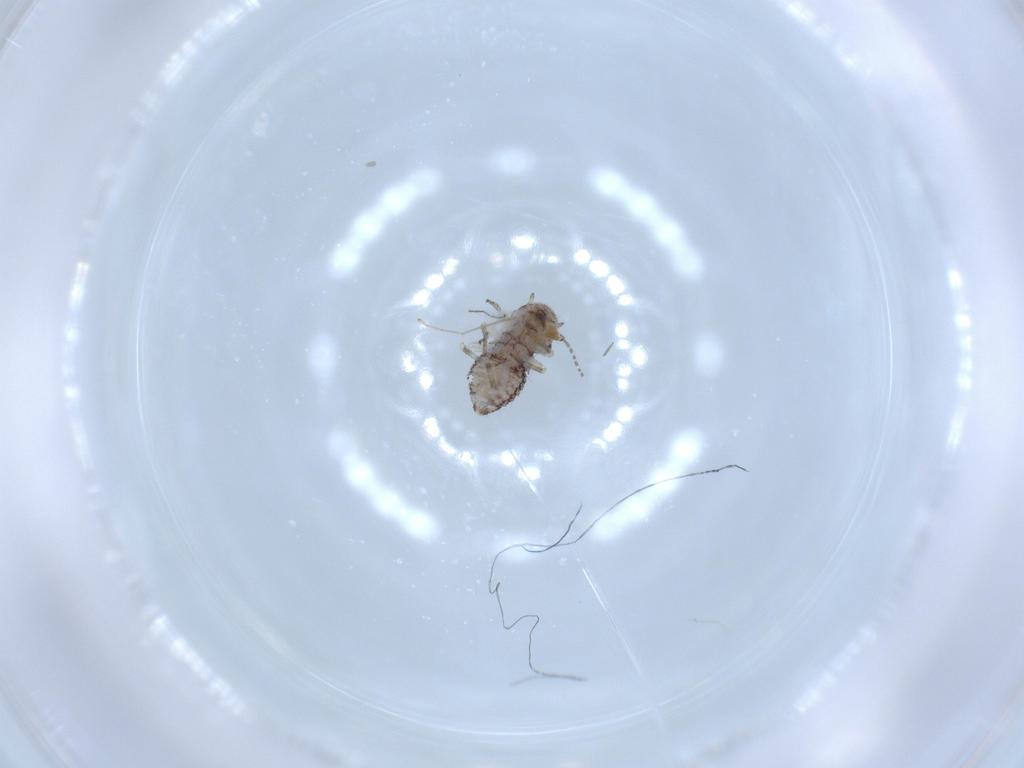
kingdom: Animalia
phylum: Arthropoda
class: Insecta
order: Psocodea
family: Lepidopsocidae
